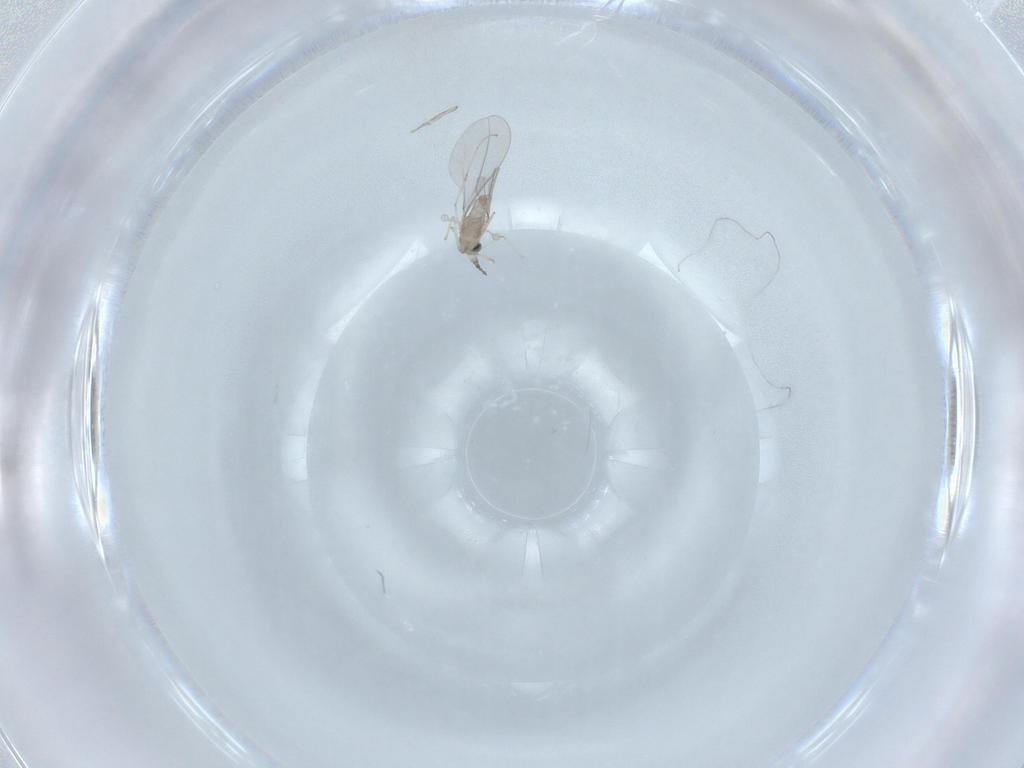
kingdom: Animalia
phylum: Arthropoda
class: Insecta
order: Diptera
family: Cecidomyiidae
